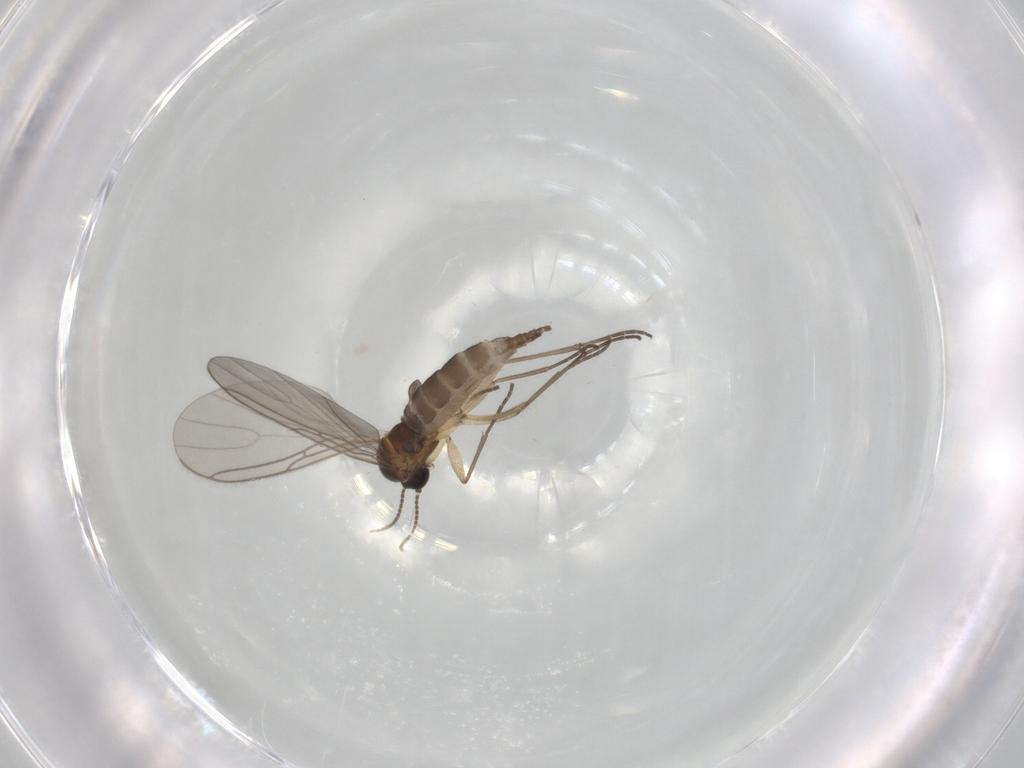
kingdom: Animalia
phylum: Arthropoda
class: Insecta
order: Diptera
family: Sciaridae
